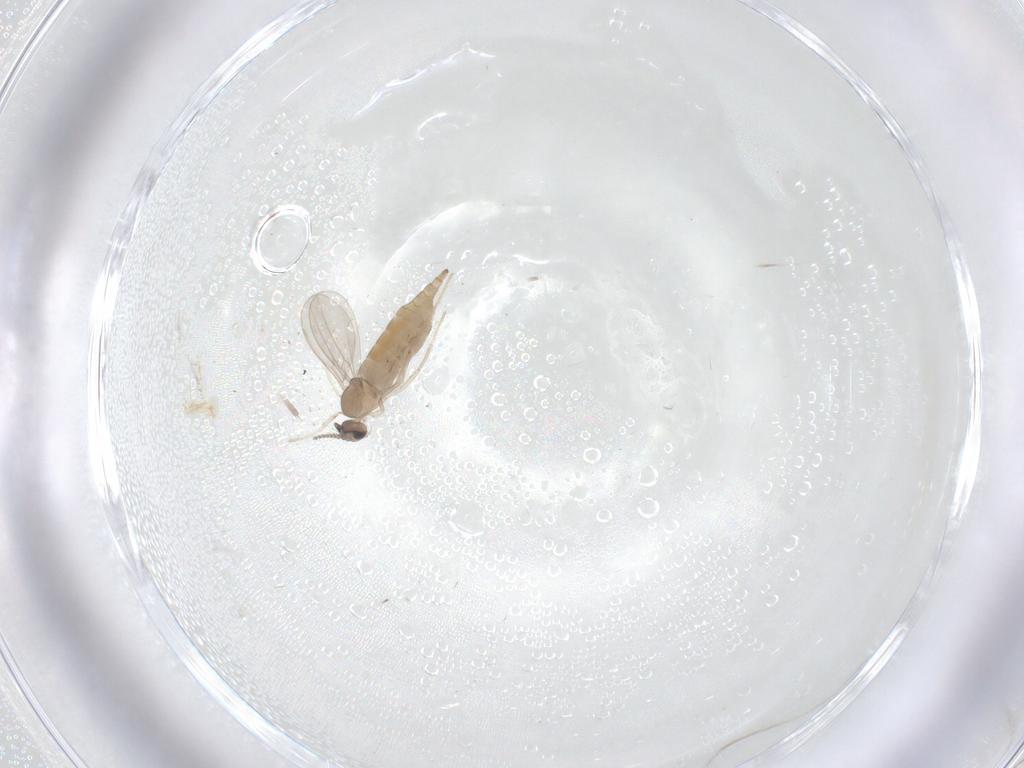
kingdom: Animalia
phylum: Arthropoda
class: Insecta
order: Diptera
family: Cecidomyiidae
